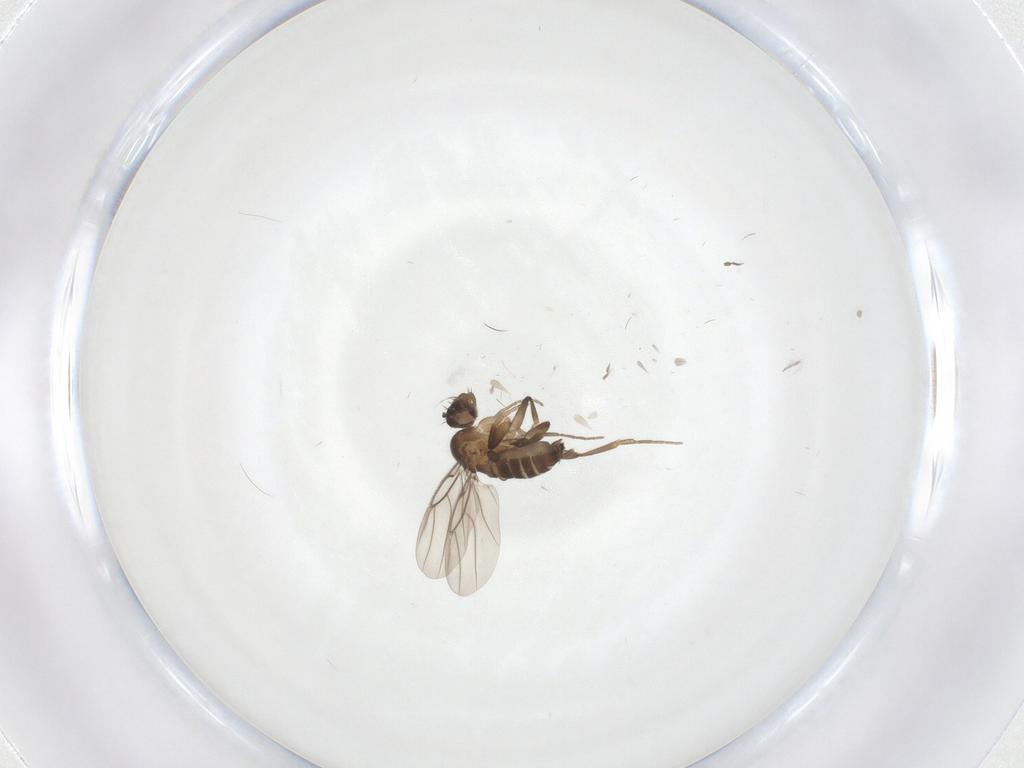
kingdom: Animalia
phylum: Arthropoda
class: Insecta
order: Diptera
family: Phoridae
